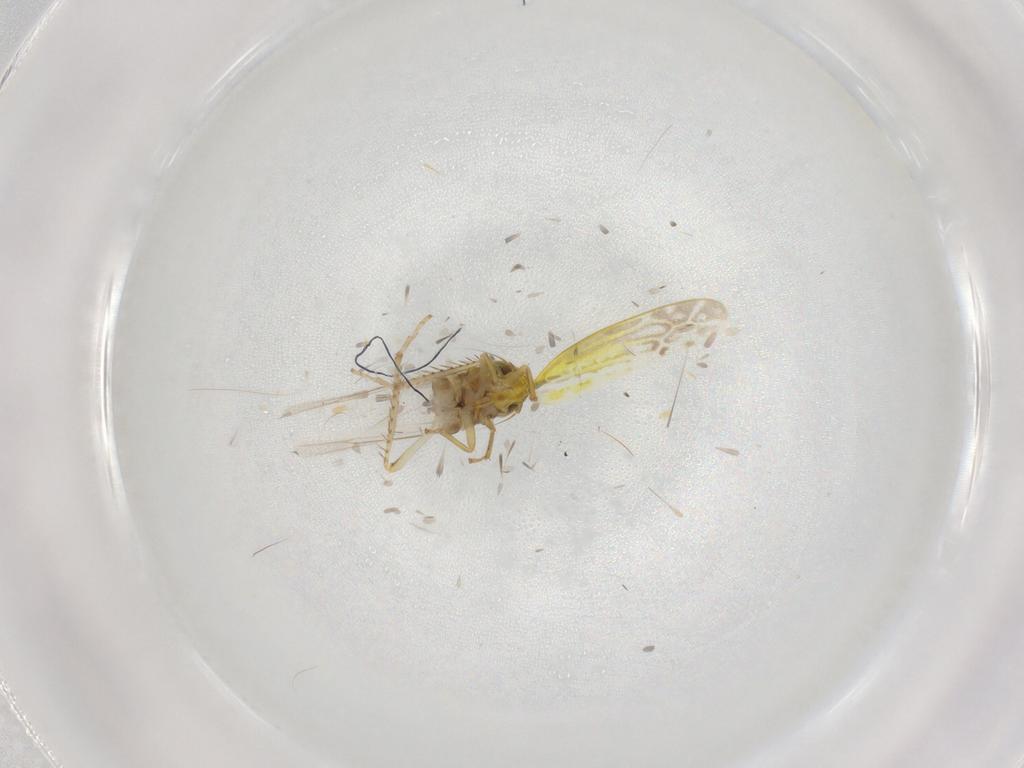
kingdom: Animalia
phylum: Arthropoda
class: Insecta
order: Hemiptera
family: Cicadellidae
